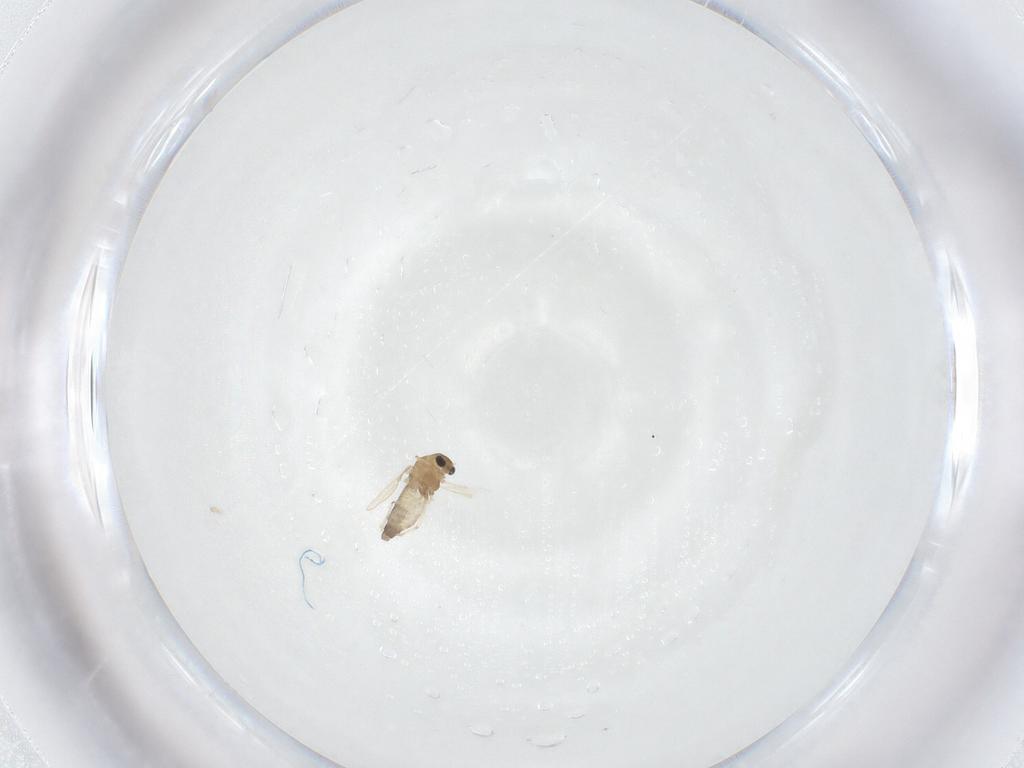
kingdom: Animalia
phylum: Arthropoda
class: Insecta
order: Diptera
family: Chironomidae
